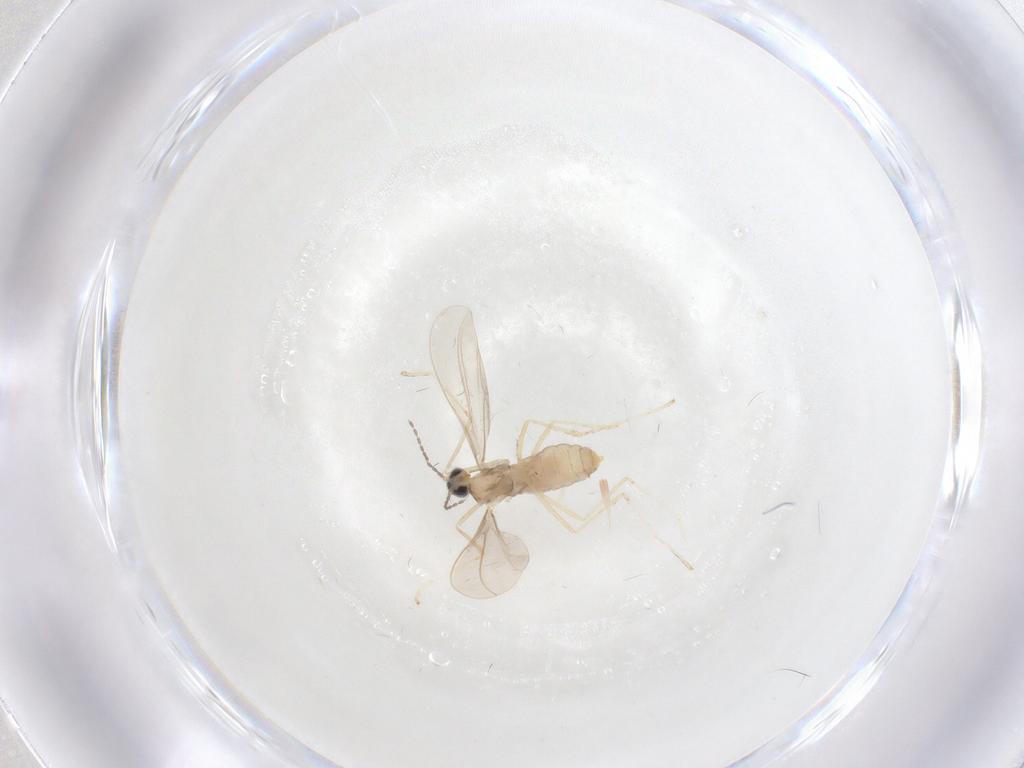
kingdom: Animalia
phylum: Arthropoda
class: Insecta
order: Diptera
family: Cecidomyiidae
